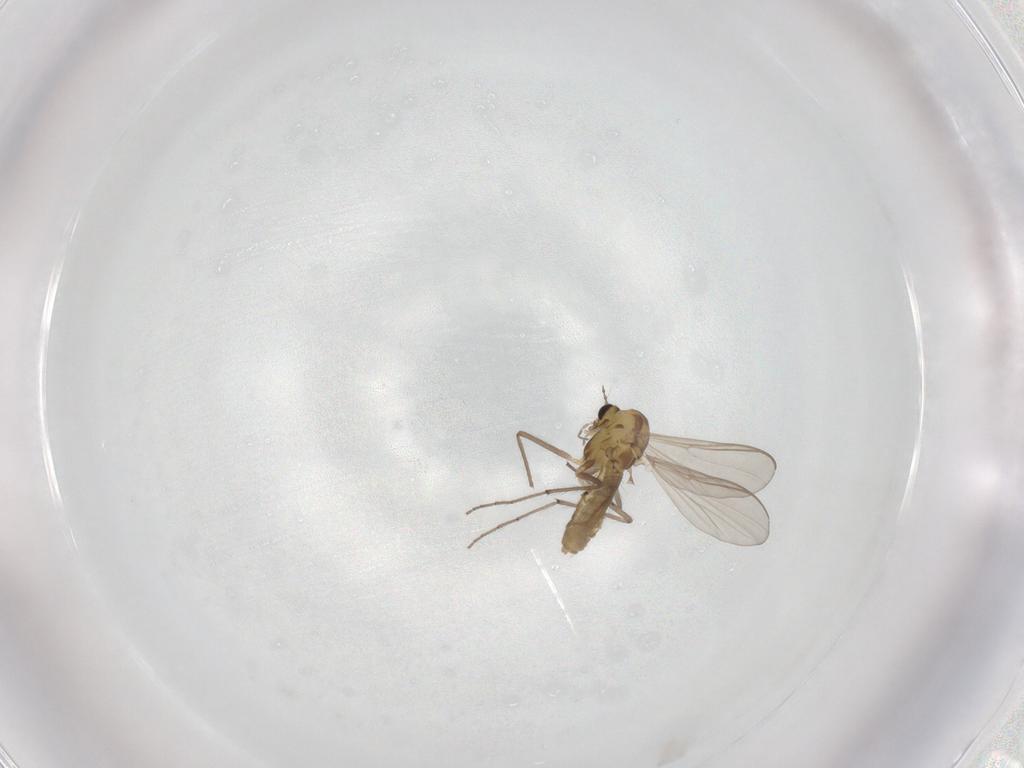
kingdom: Animalia
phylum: Arthropoda
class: Insecta
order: Diptera
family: Chironomidae
